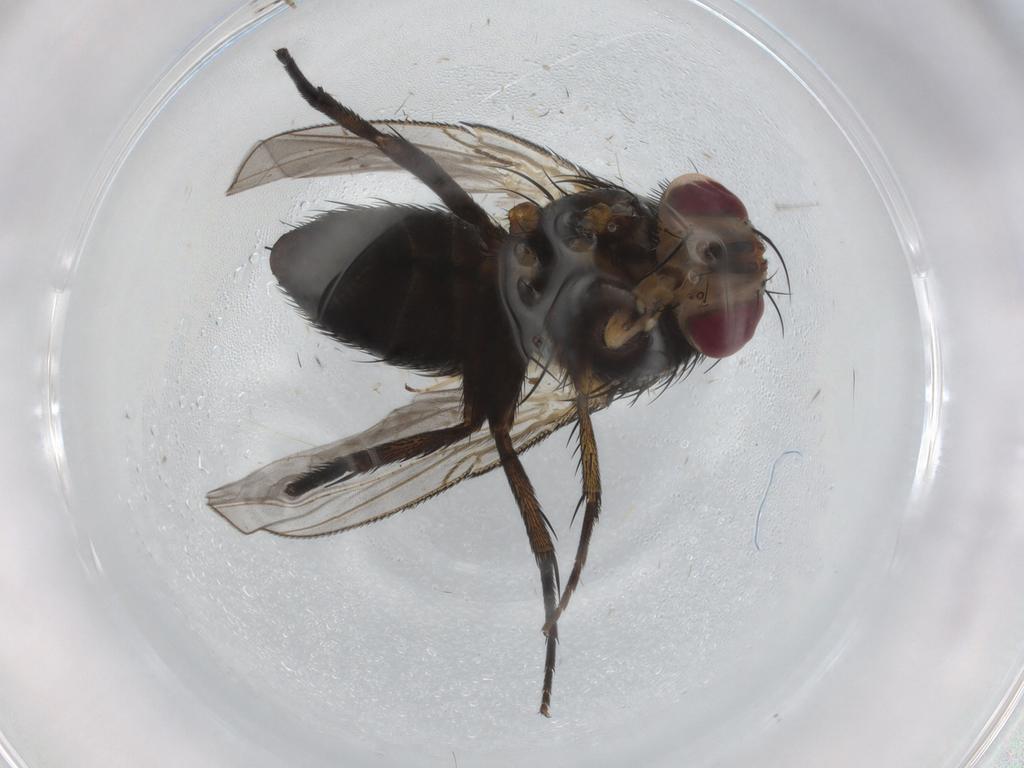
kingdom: Animalia
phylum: Arthropoda
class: Insecta
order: Diptera
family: Tachinidae
